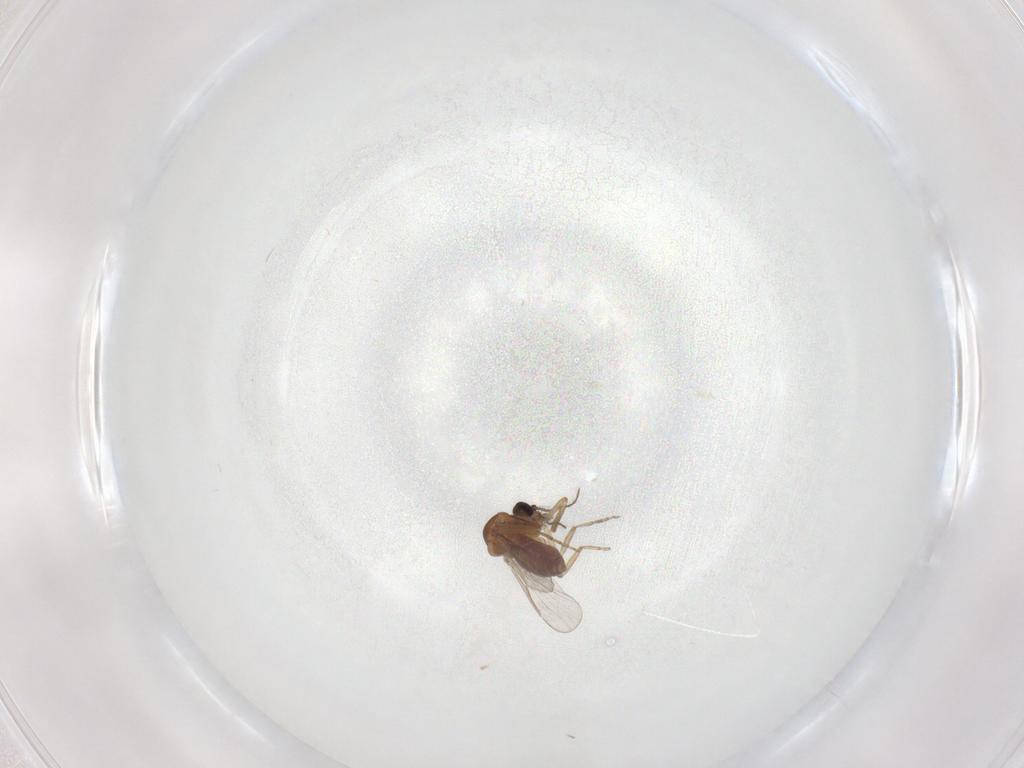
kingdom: Animalia
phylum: Arthropoda
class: Insecta
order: Diptera
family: Dolichopodidae
